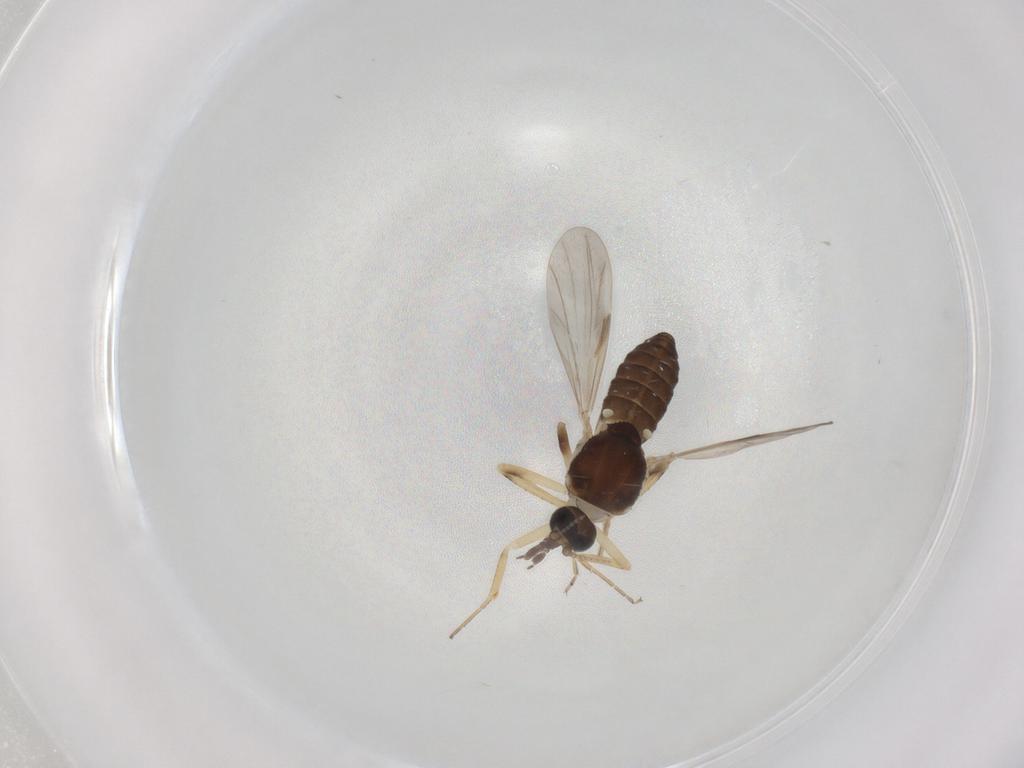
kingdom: Animalia
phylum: Arthropoda
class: Insecta
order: Diptera
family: Ceratopogonidae
